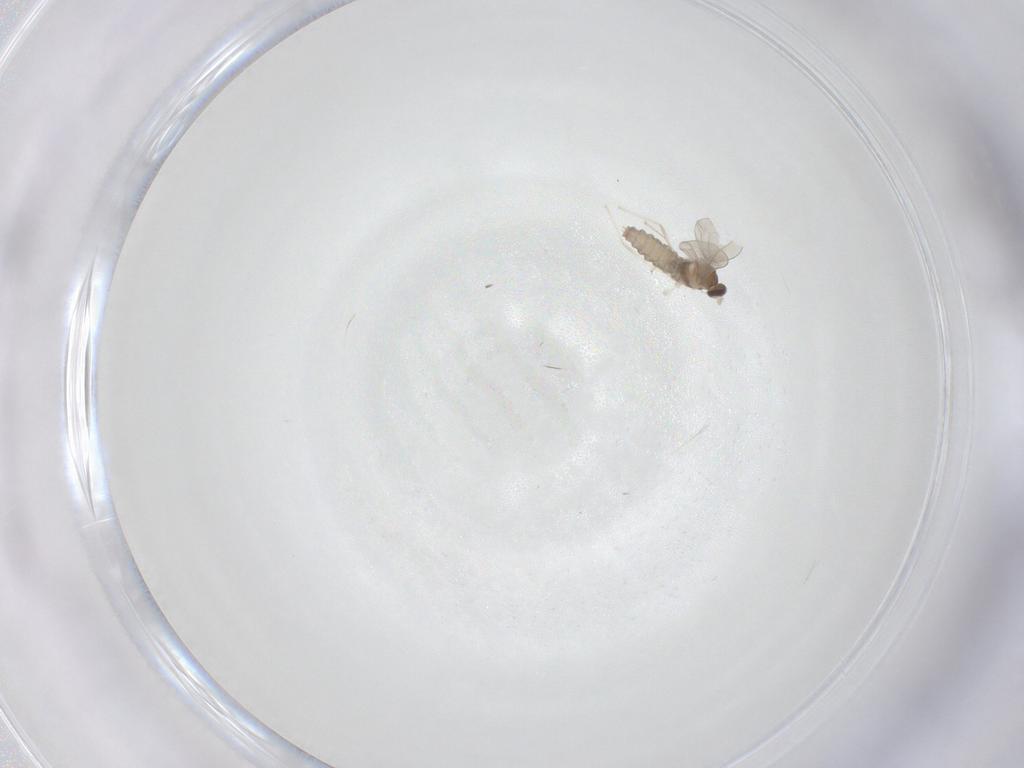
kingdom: Animalia
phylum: Arthropoda
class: Insecta
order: Diptera
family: Cecidomyiidae
